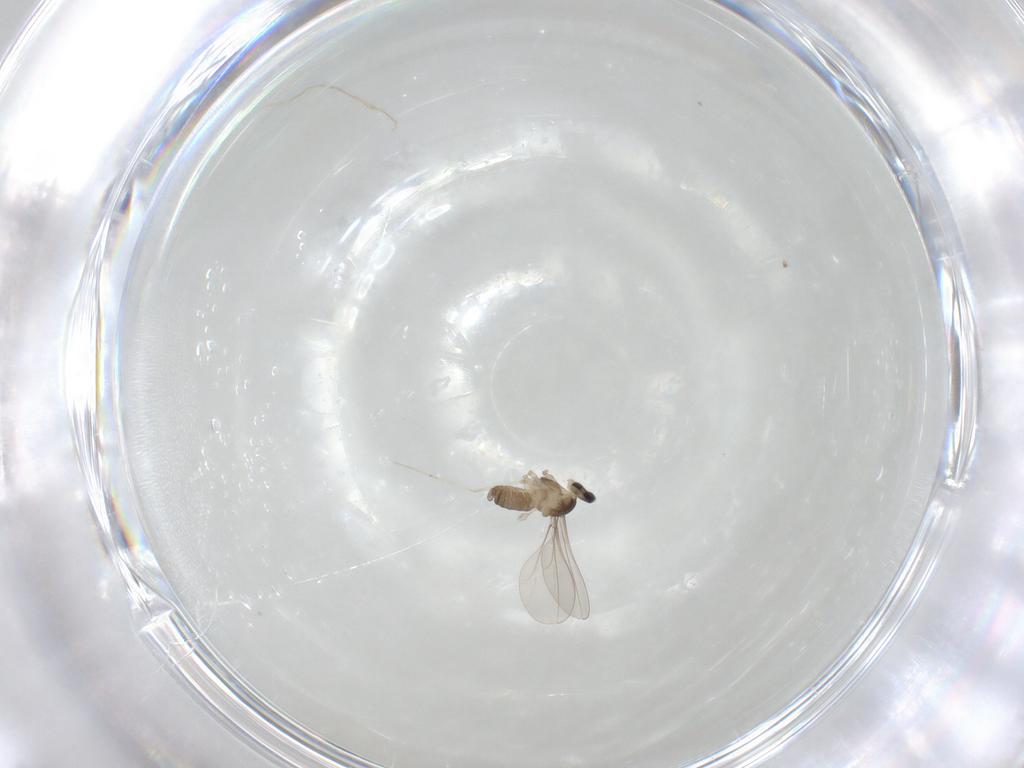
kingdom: Animalia
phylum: Arthropoda
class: Insecta
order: Diptera
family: Cecidomyiidae
